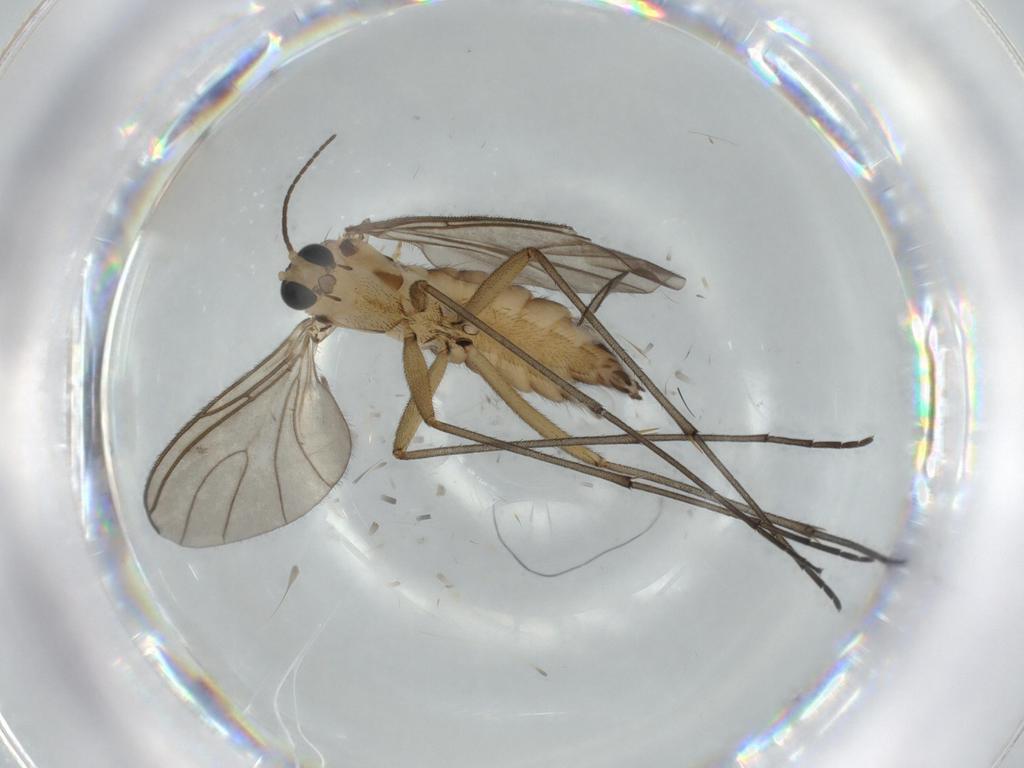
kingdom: Animalia
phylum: Arthropoda
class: Insecta
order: Diptera
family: Sciaridae
